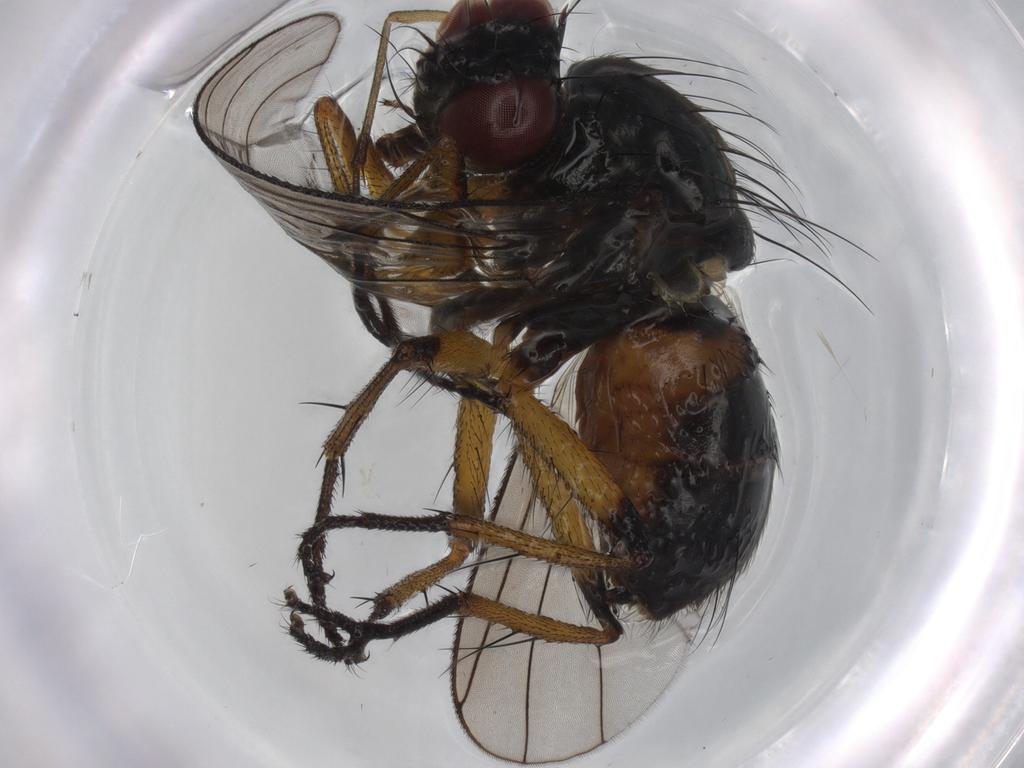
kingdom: Animalia
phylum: Arthropoda
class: Insecta
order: Diptera
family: Muscidae
